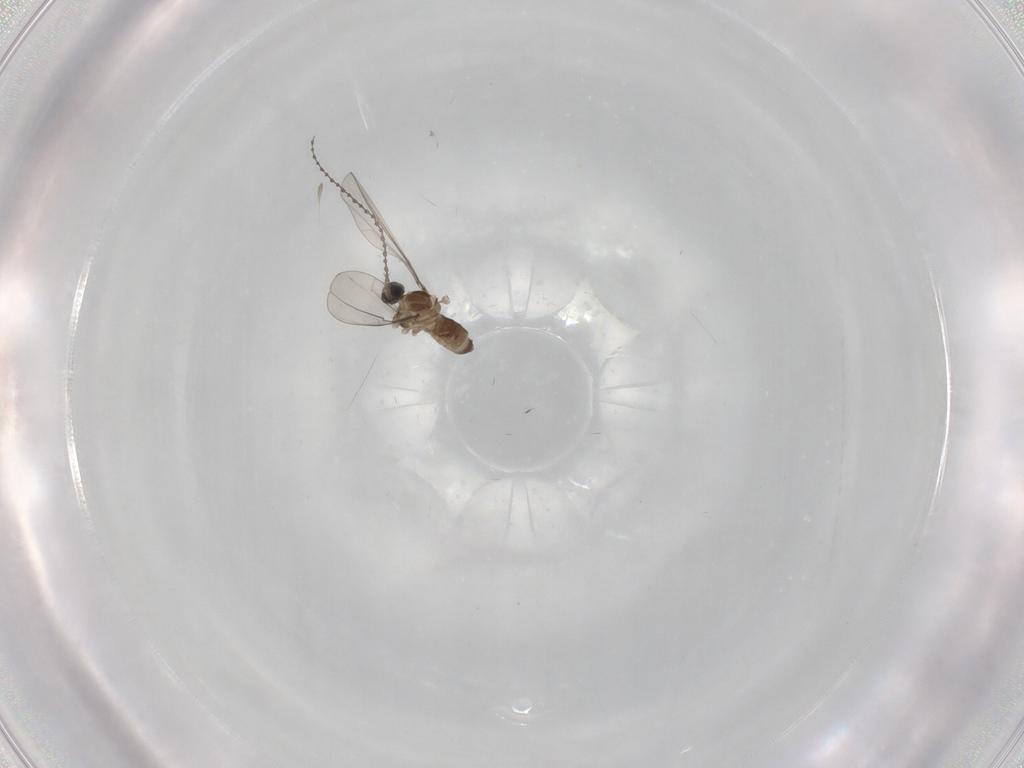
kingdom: Animalia
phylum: Arthropoda
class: Insecta
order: Diptera
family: Cecidomyiidae
